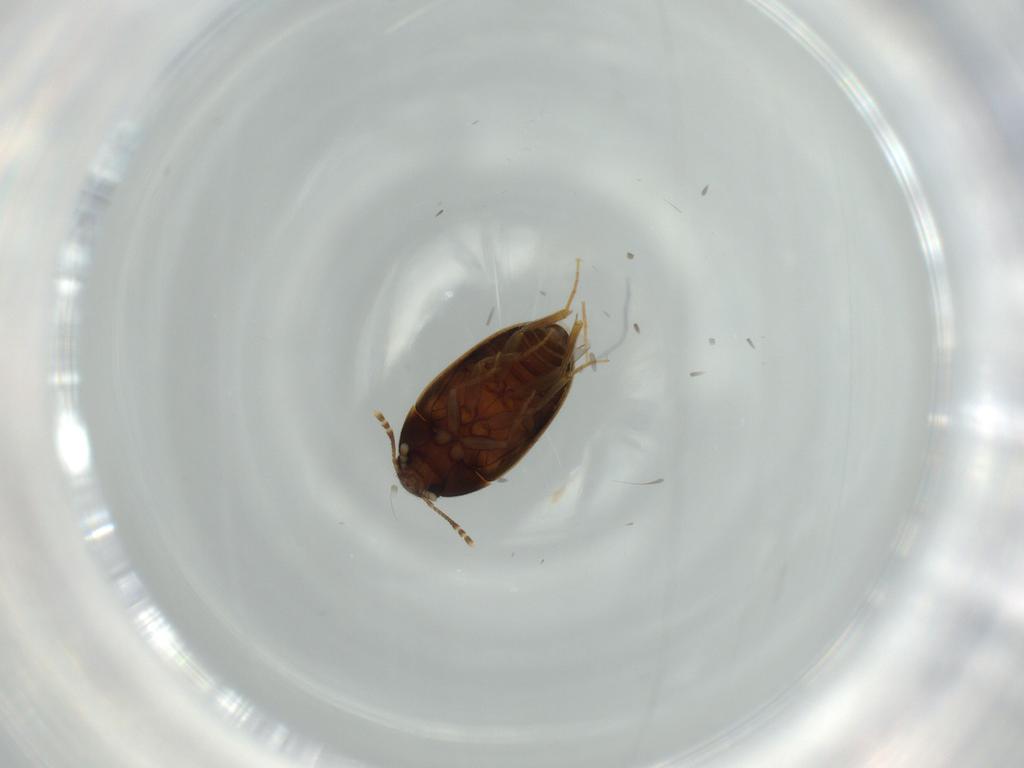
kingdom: Animalia
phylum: Arthropoda
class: Insecta
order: Coleoptera
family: Mycetophagidae
